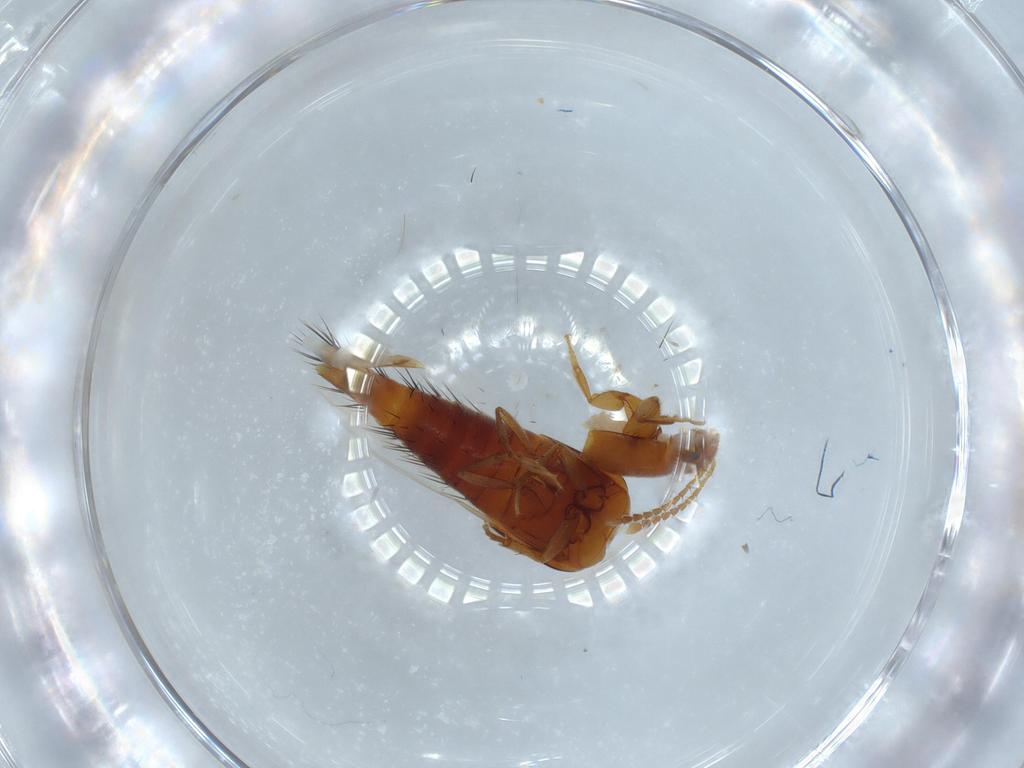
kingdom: Animalia
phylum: Arthropoda
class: Insecta
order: Coleoptera
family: Staphylinidae
